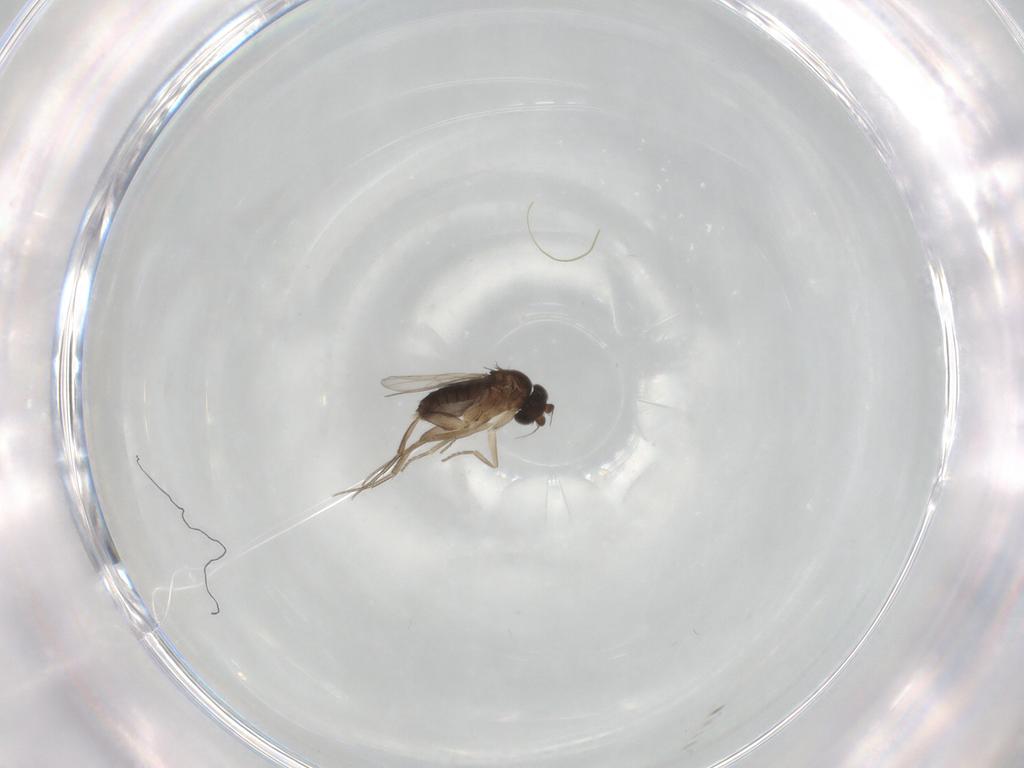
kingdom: Animalia
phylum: Arthropoda
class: Insecta
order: Diptera
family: Phoridae
